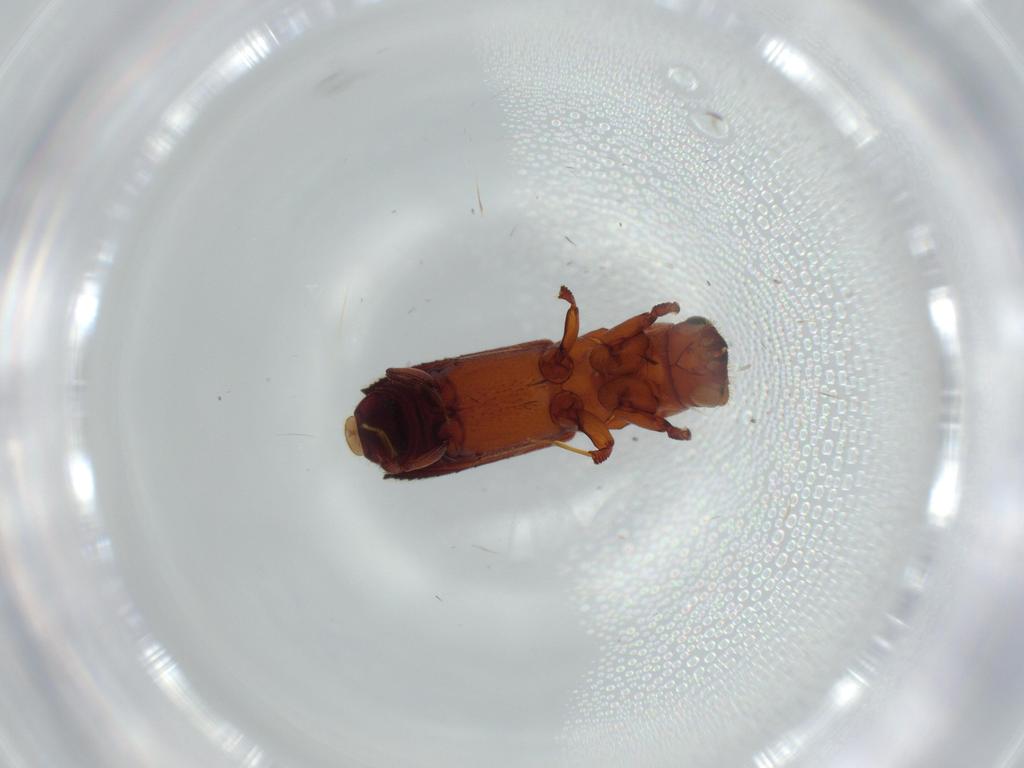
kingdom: Animalia
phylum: Arthropoda
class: Insecta
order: Coleoptera
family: Curculionidae
